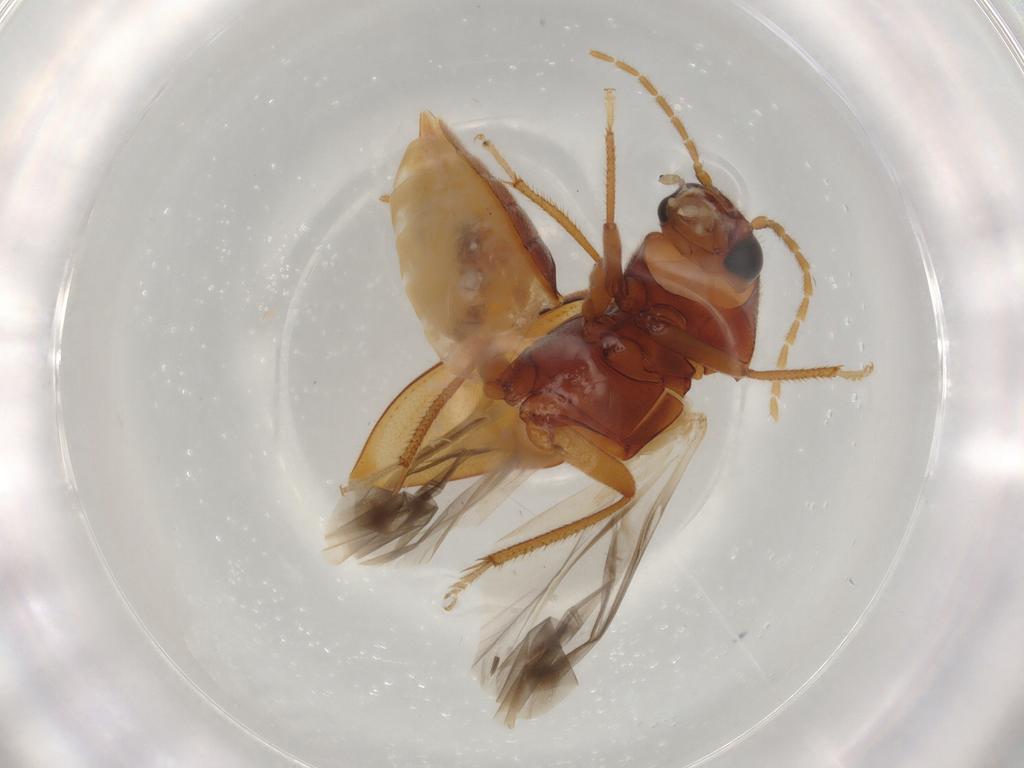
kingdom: Animalia
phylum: Arthropoda
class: Insecta
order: Coleoptera
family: Ptilodactylidae
